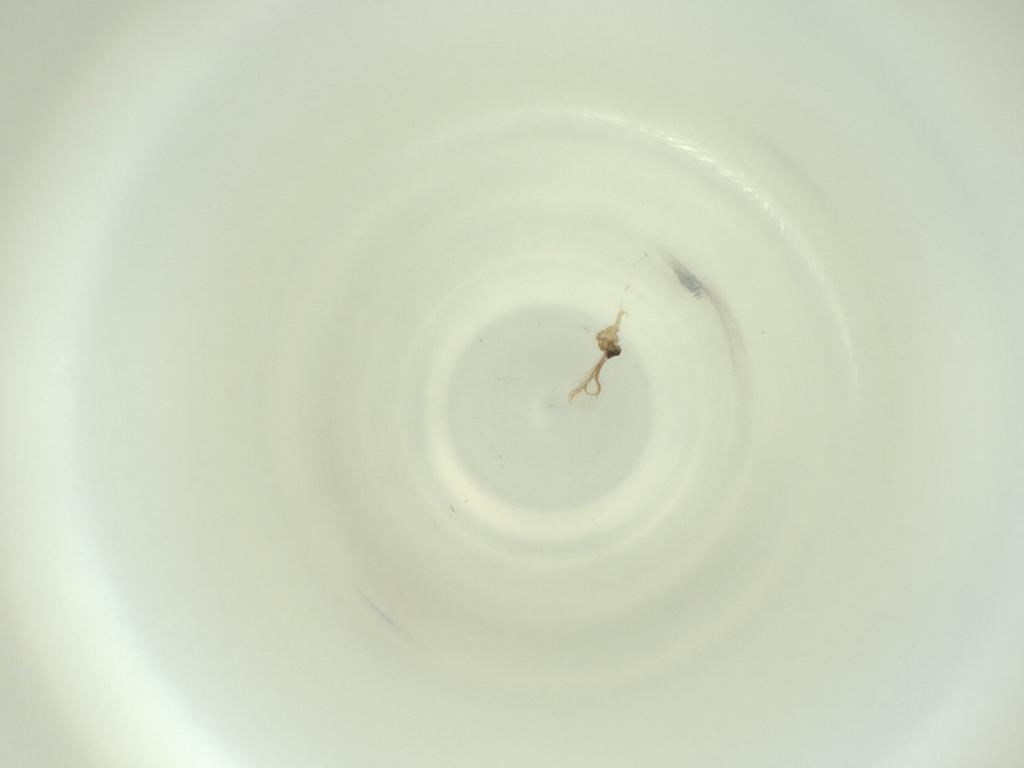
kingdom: Animalia
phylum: Arthropoda
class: Insecta
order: Diptera
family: Cecidomyiidae
